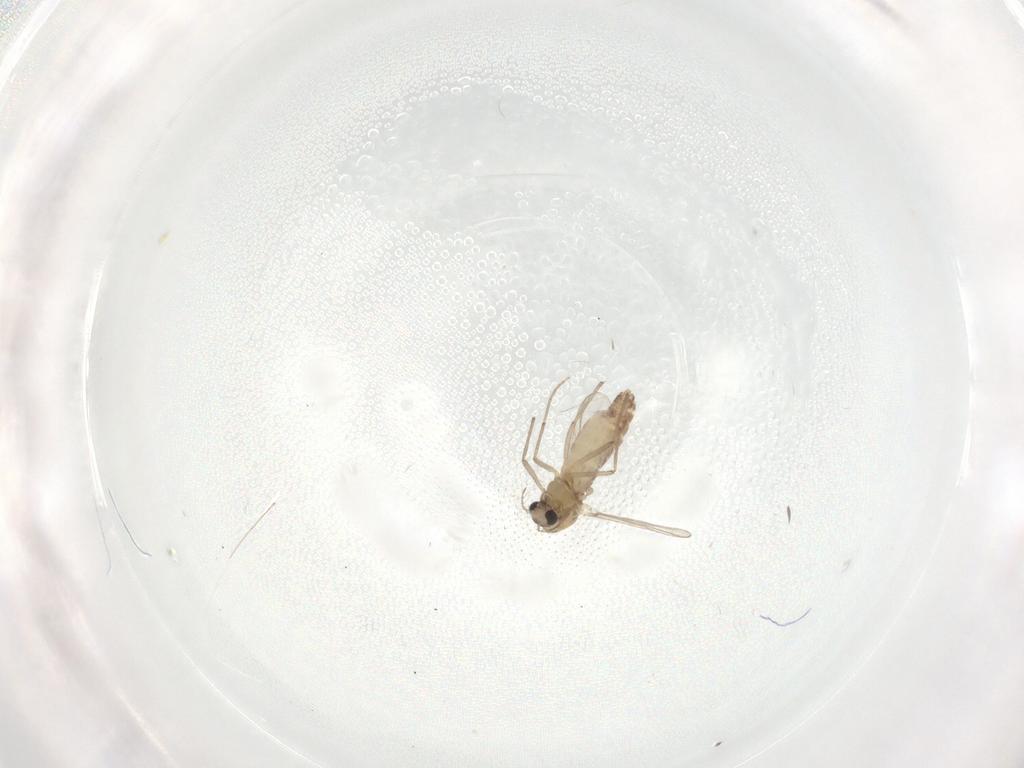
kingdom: Animalia
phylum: Arthropoda
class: Insecta
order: Diptera
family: Chironomidae
